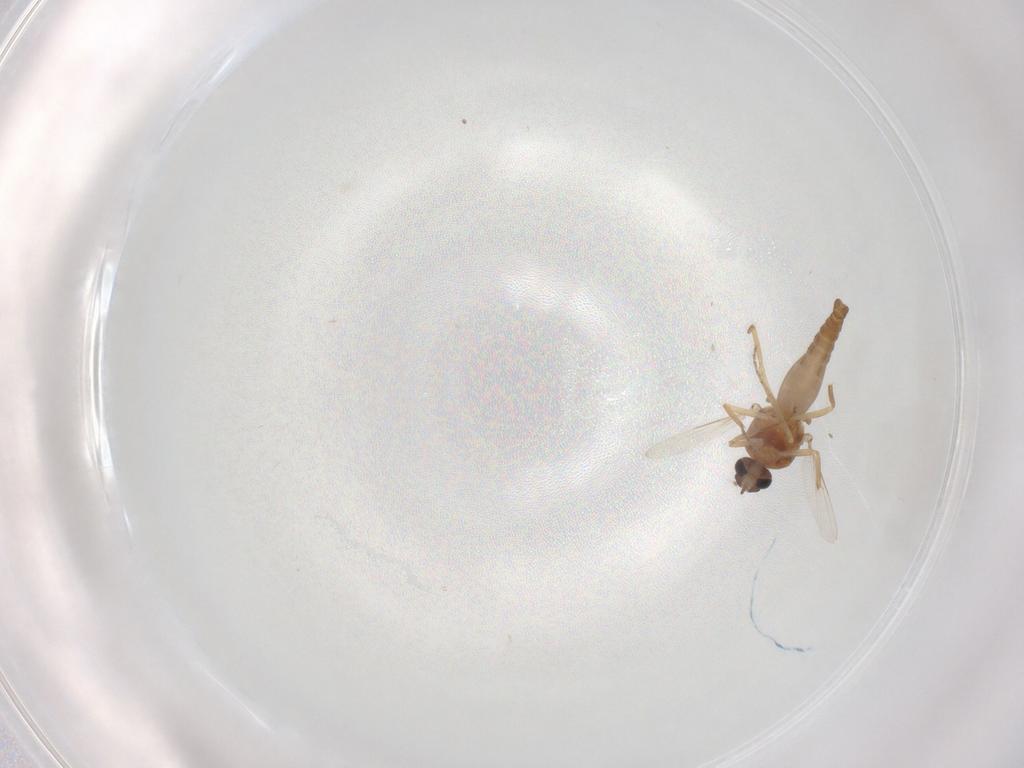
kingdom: Animalia
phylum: Arthropoda
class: Insecta
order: Diptera
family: Ceratopogonidae
